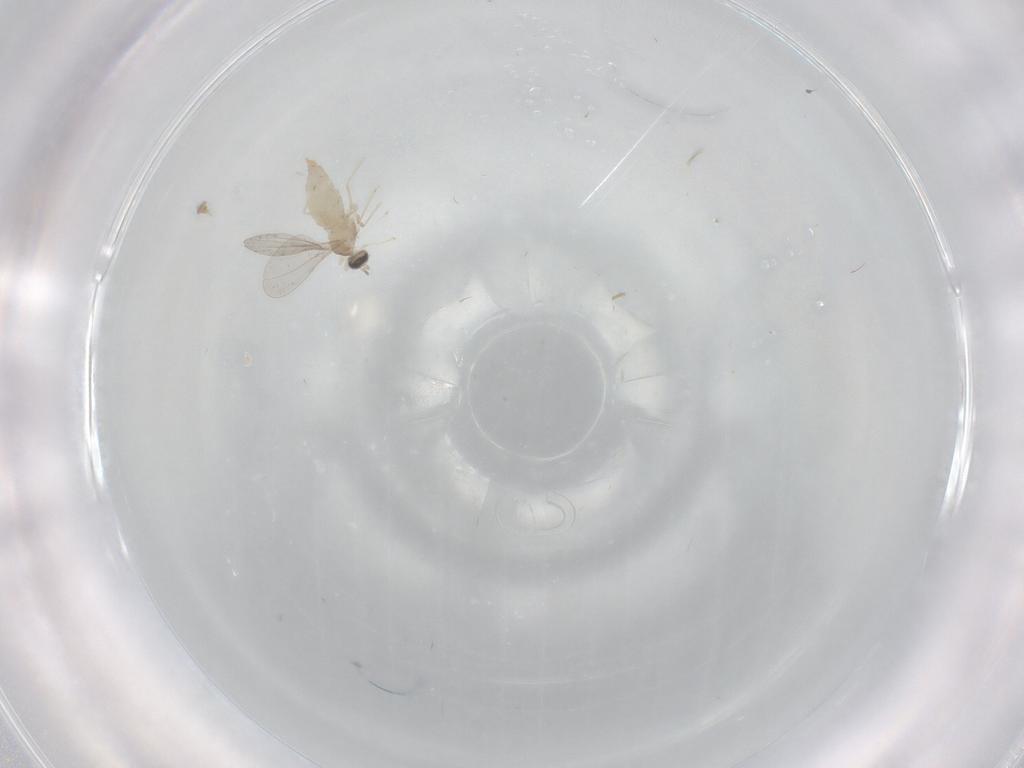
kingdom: Animalia
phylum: Arthropoda
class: Insecta
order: Diptera
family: Cecidomyiidae
